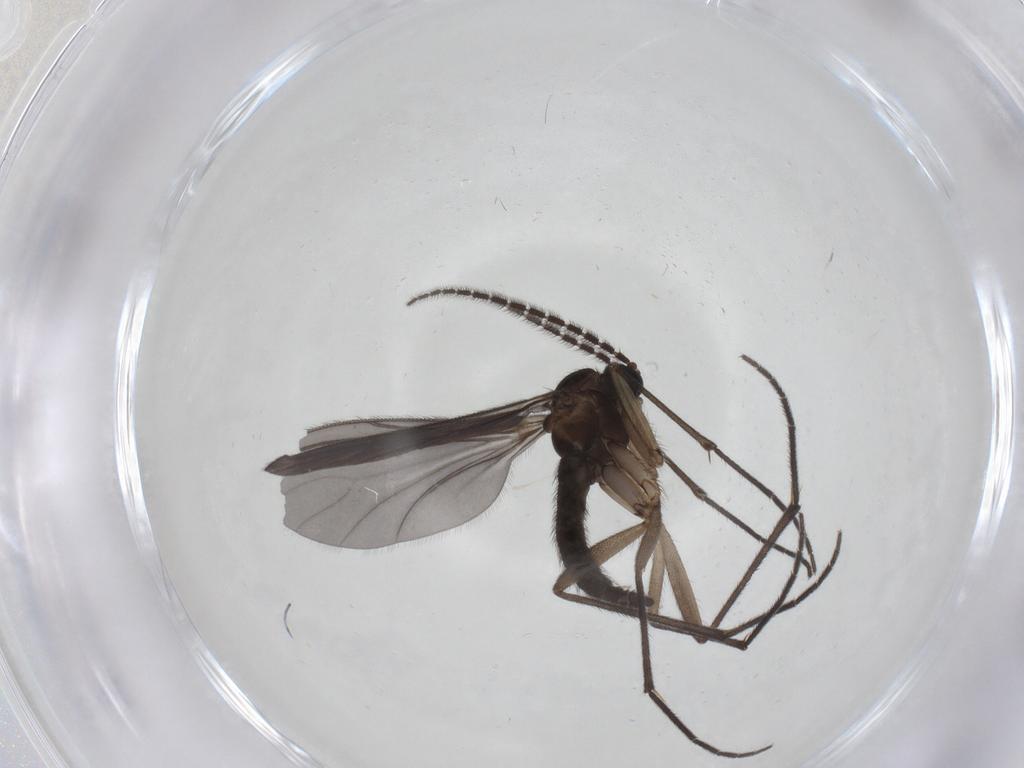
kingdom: Animalia
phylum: Arthropoda
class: Insecta
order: Diptera
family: Sciaridae
